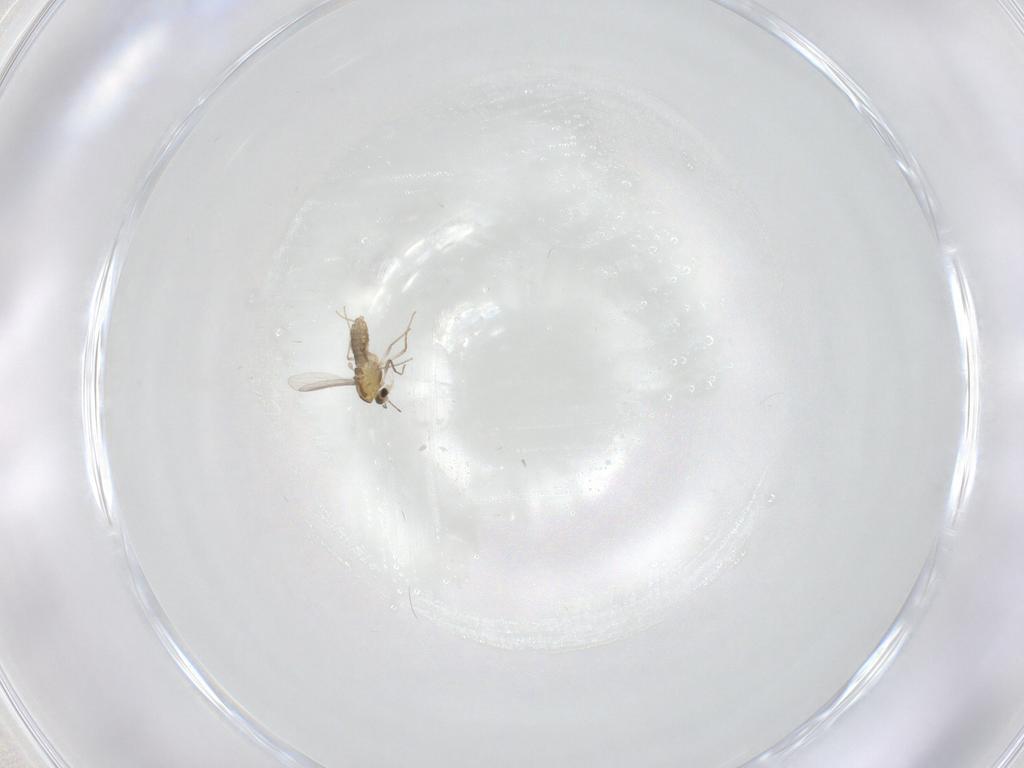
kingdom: Animalia
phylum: Arthropoda
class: Insecta
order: Diptera
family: Chironomidae
